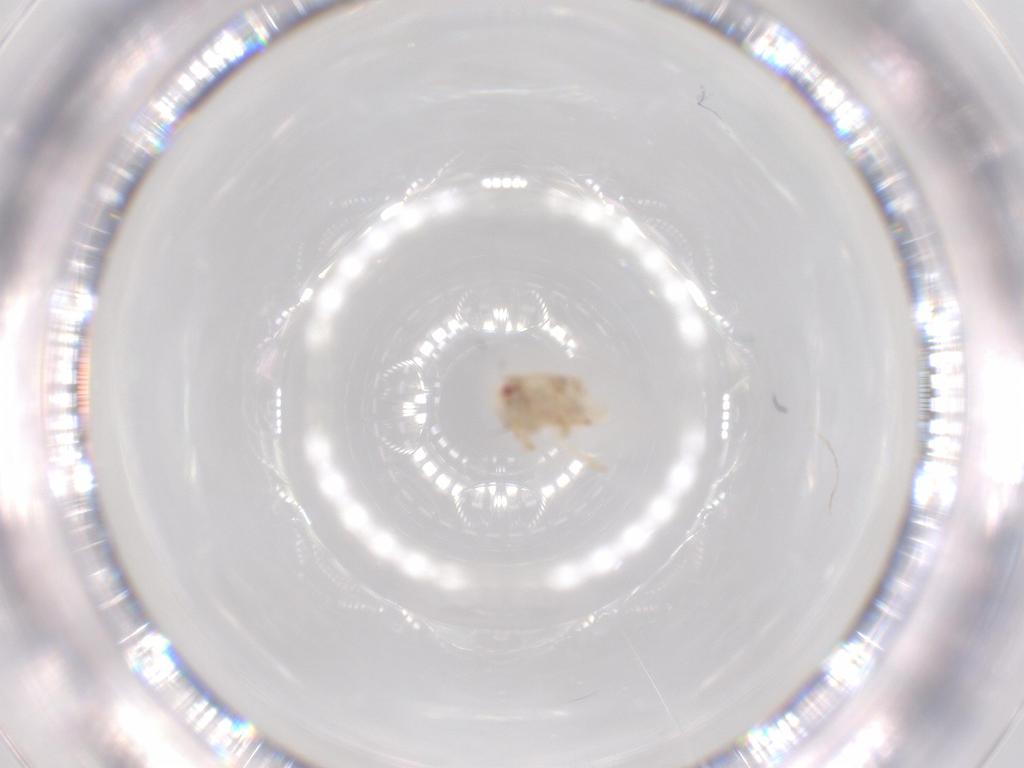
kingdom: Animalia
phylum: Arthropoda
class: Insecta
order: Hemiptera
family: Acanaloniidae
